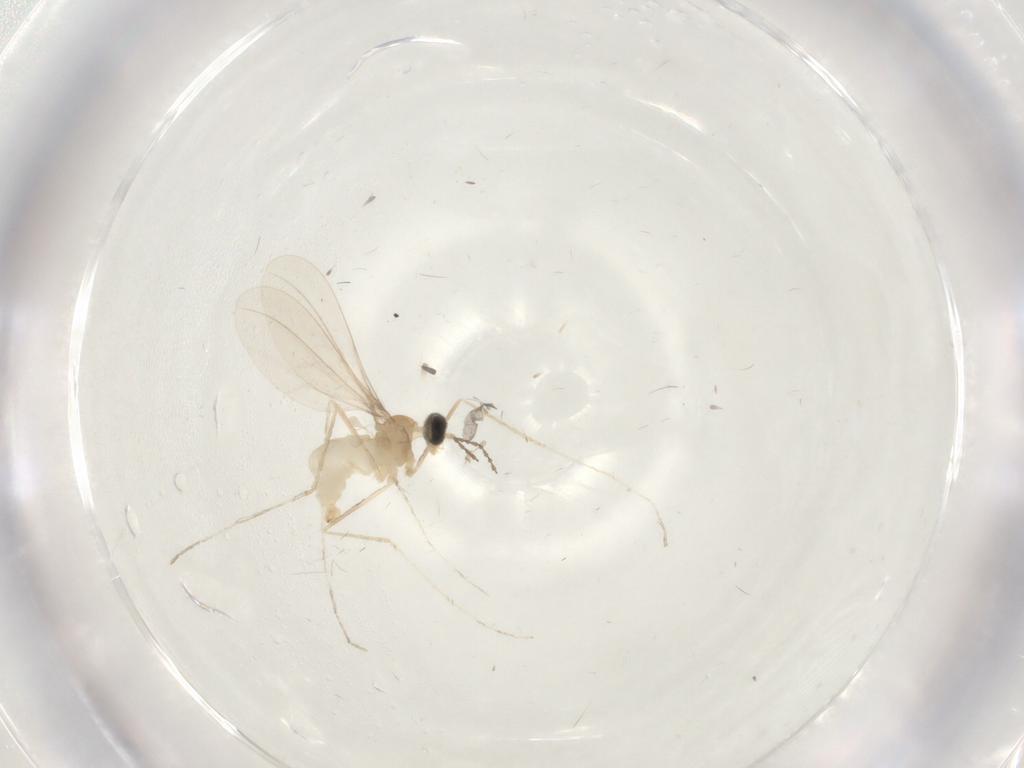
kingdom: Animalia
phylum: Arthropoda
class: Insecta
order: Diptera
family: Cecidomyiidae
